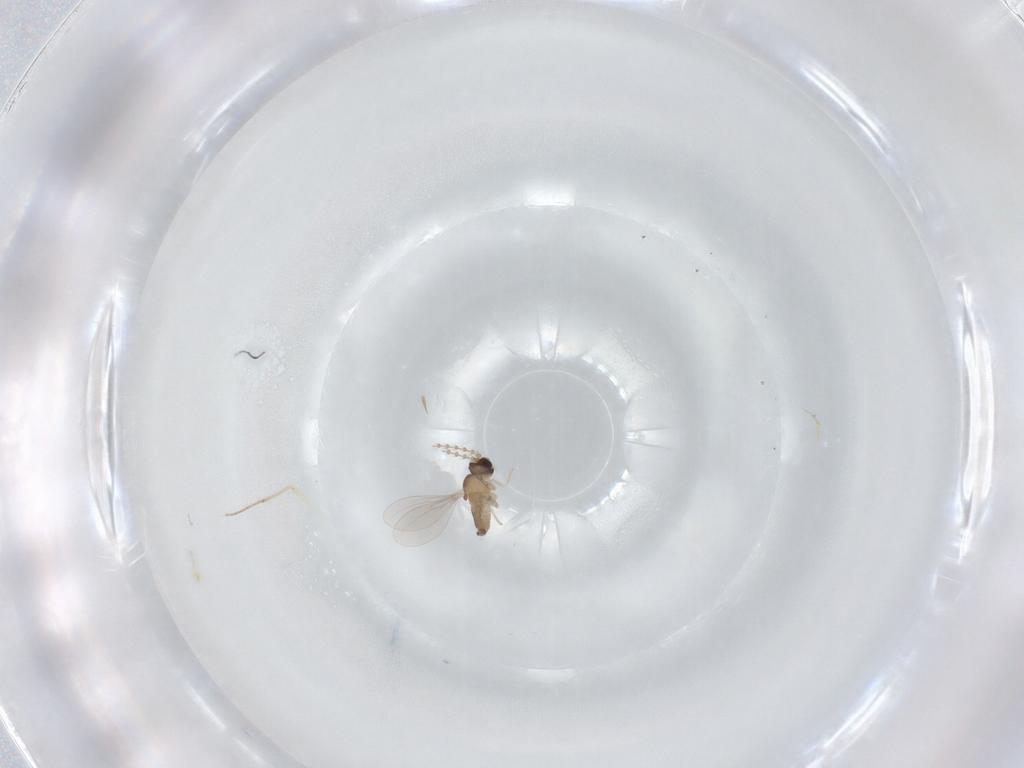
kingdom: Animalia
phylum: Arthropoda
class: Insecta
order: Diptera
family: Cecidomyiidae
